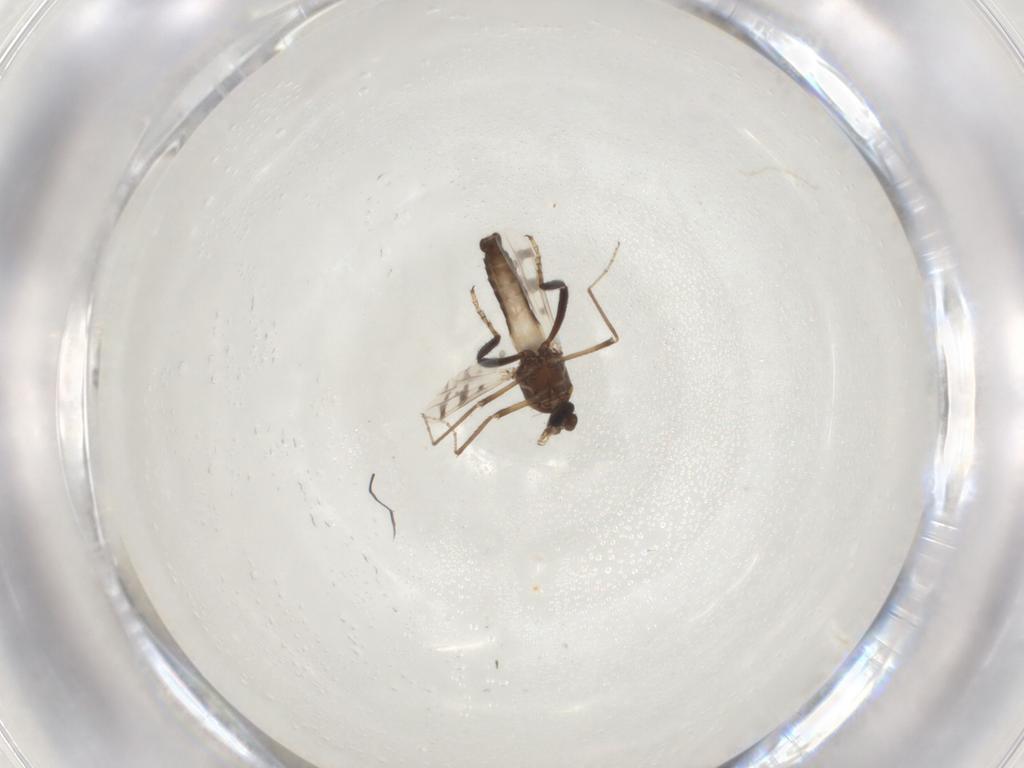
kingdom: Animalia
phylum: Arthropoda
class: Insecta
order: Diptera
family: Ceratopogonidae
